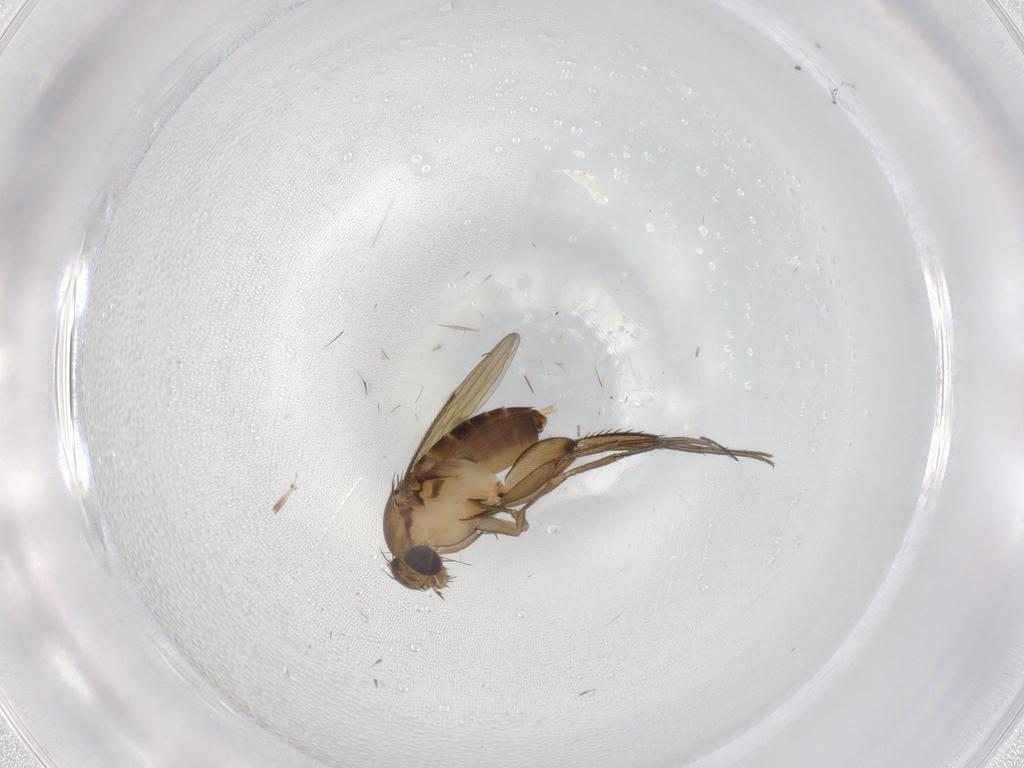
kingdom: Animalia
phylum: Arthropoda
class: Insecta
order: Diptera
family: Phoridae
